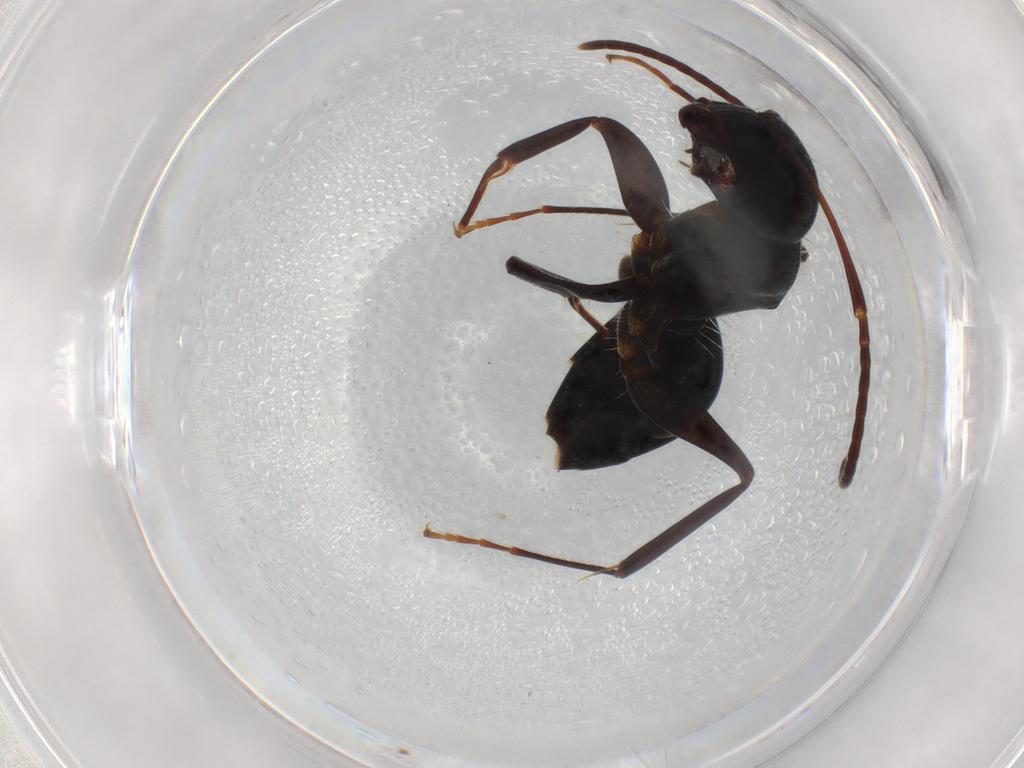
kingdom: Animalia
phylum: Arthropoda
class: Insecta
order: Hymenoptera
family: Formicidae
